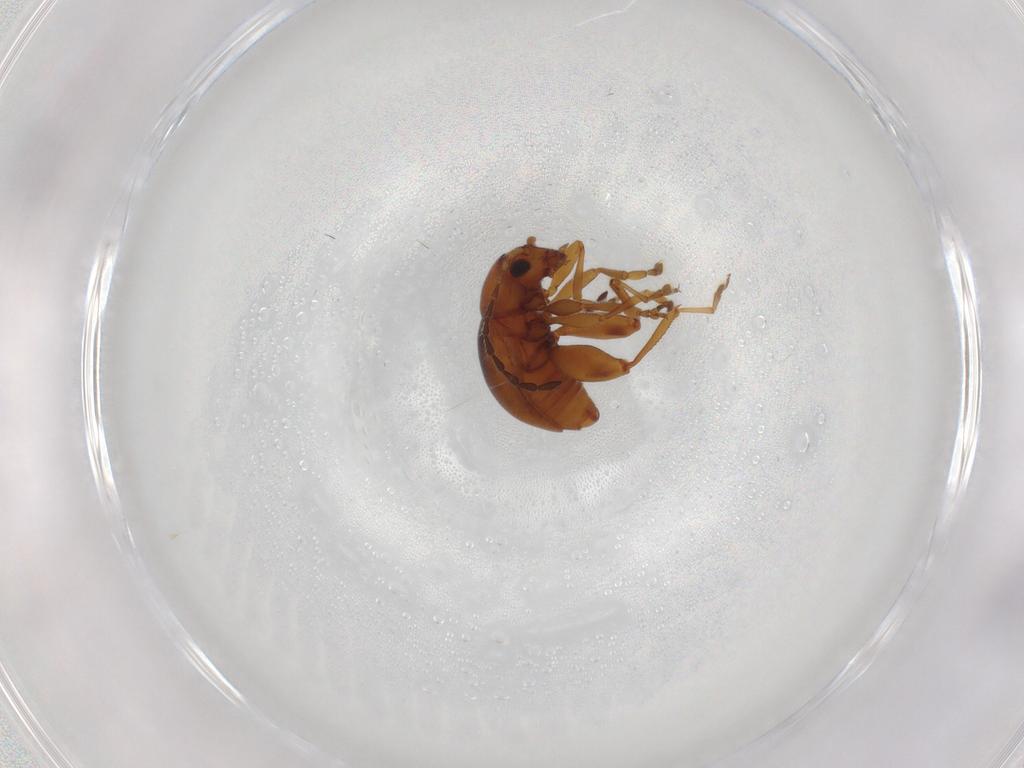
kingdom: Animalia
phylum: Arthropoda
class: Insecta
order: Coleoptera
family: Chrysomelidae
